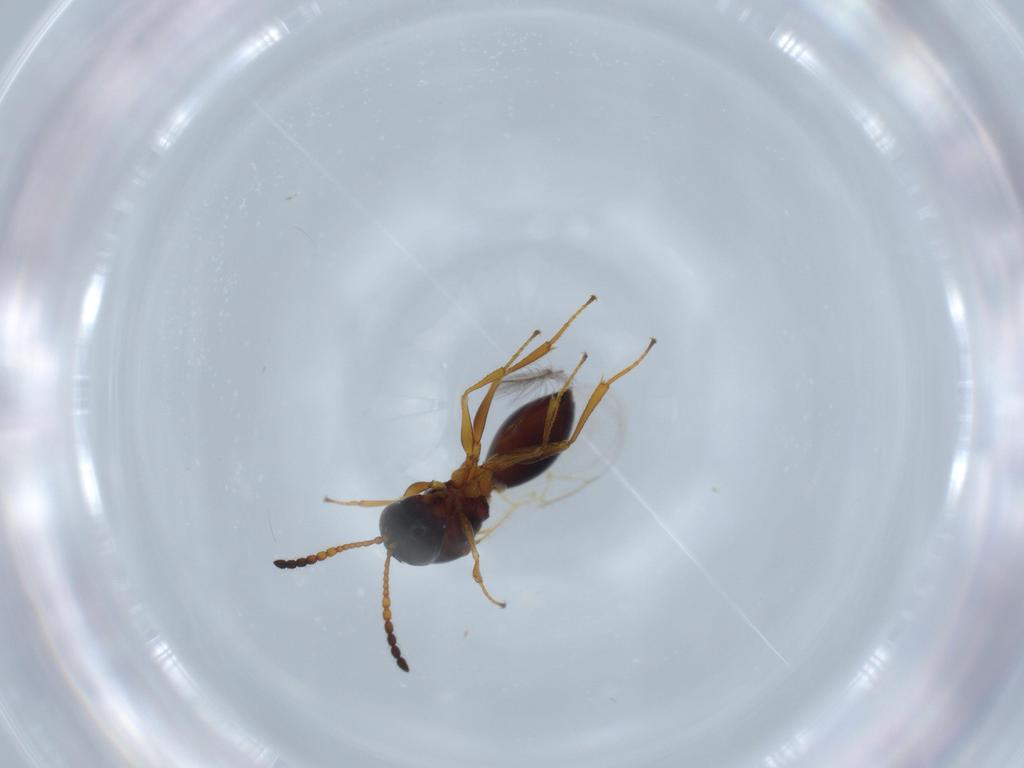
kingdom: Animalia
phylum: Arthropoda
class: Insecta
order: Hymenoptera
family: Figitidae
